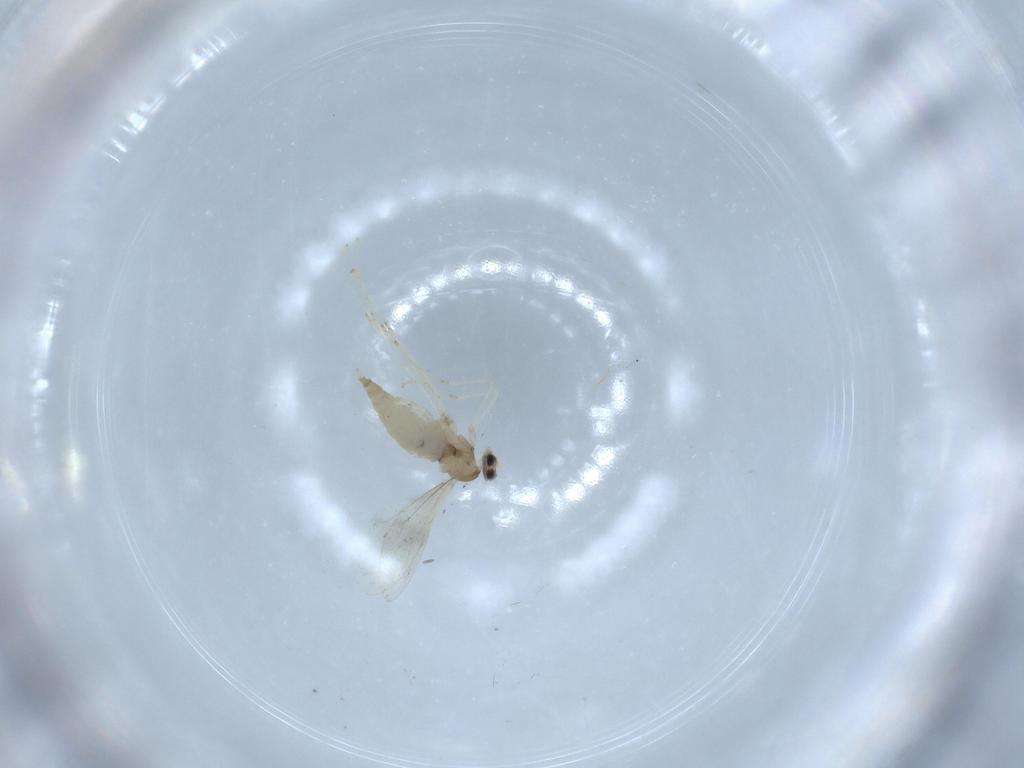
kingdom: Animalia
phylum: Arthropoda
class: Insecta
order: Diptera
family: Cecidomyiidae
